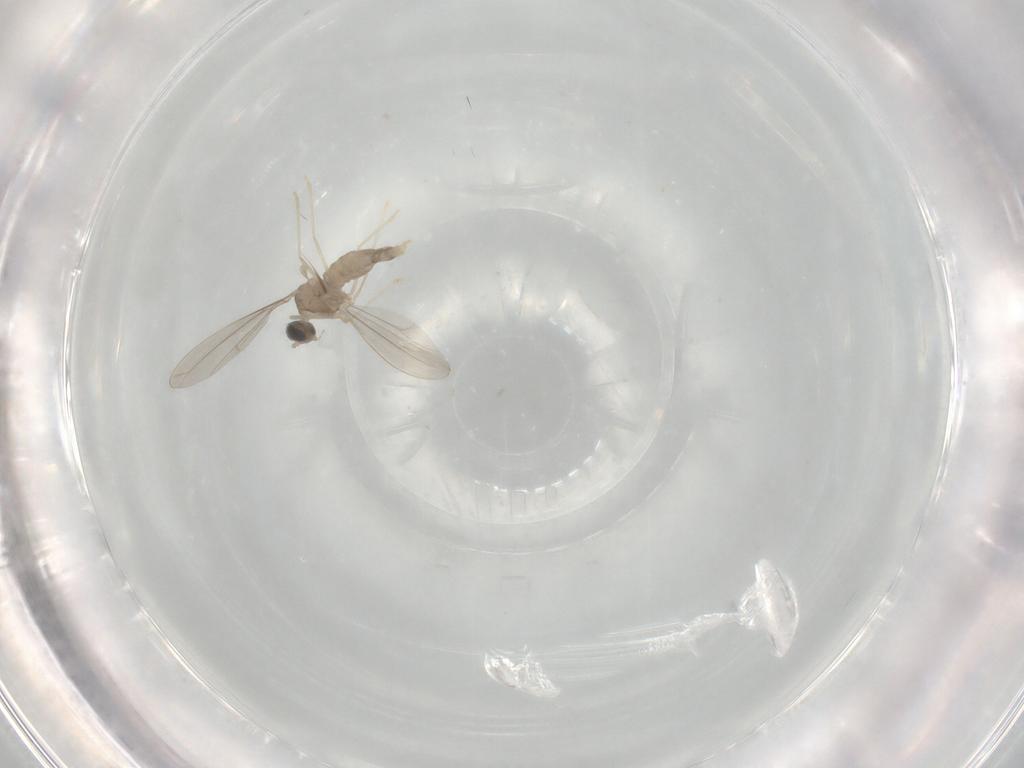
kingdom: Animalia
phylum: Arthropoda
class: Insecta
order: Diptera
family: Phoridae
